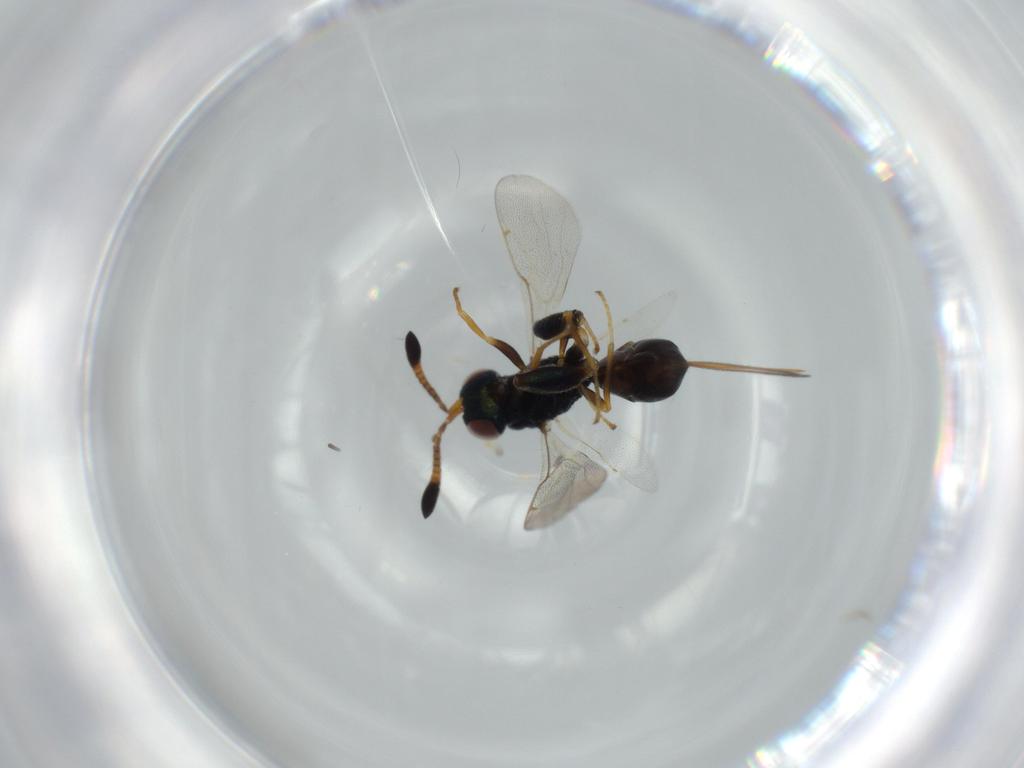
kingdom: Animalia
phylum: Arthropoda
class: Insecta
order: Hymenoptera
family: Torymidae
